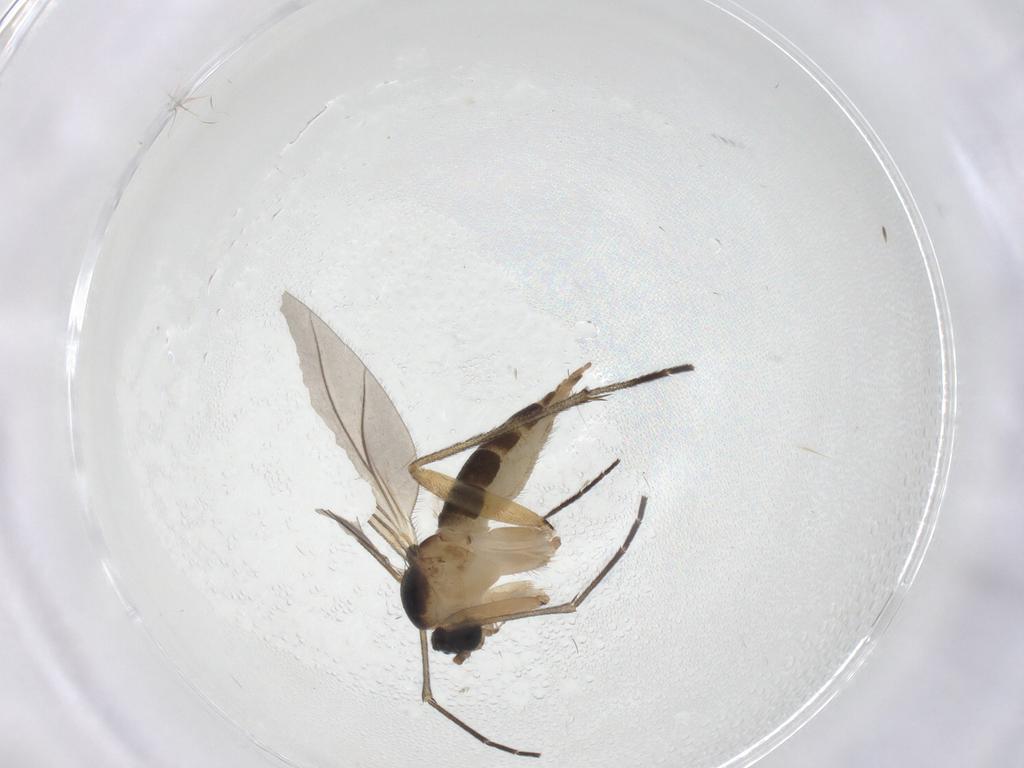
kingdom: Animalia
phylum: Arthropoda
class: Insecta
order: Diptera
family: Sciaridae
